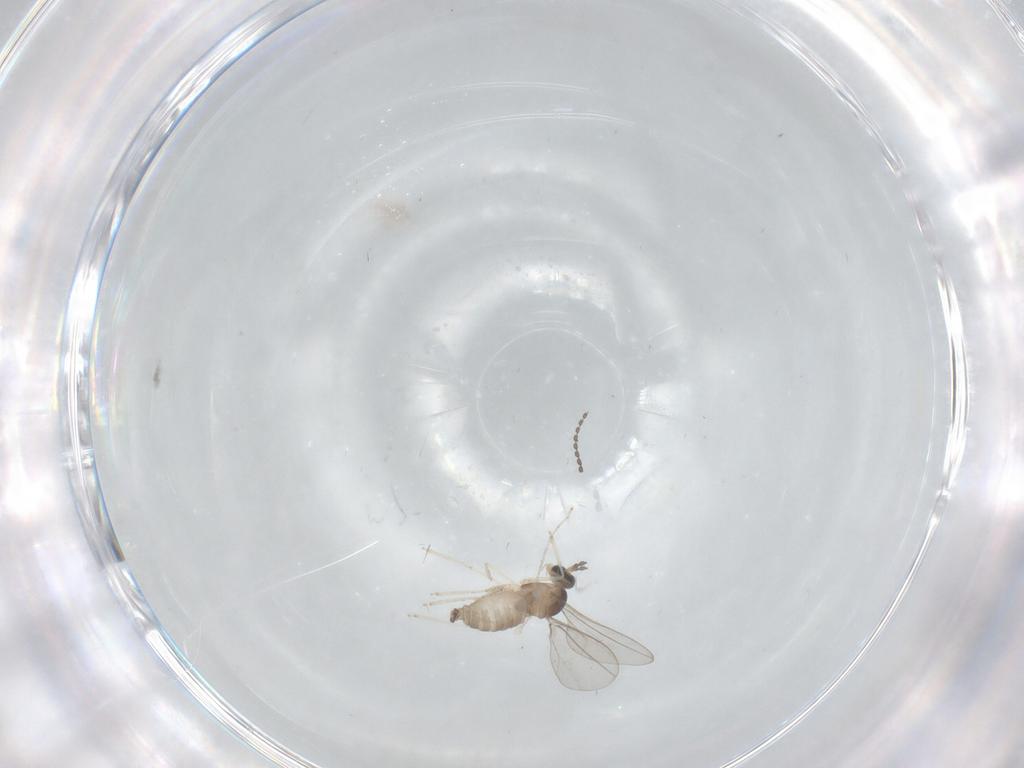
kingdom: Animalia
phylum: Arthropoda
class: Insecta
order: Diptera
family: Cecidomyiidae
